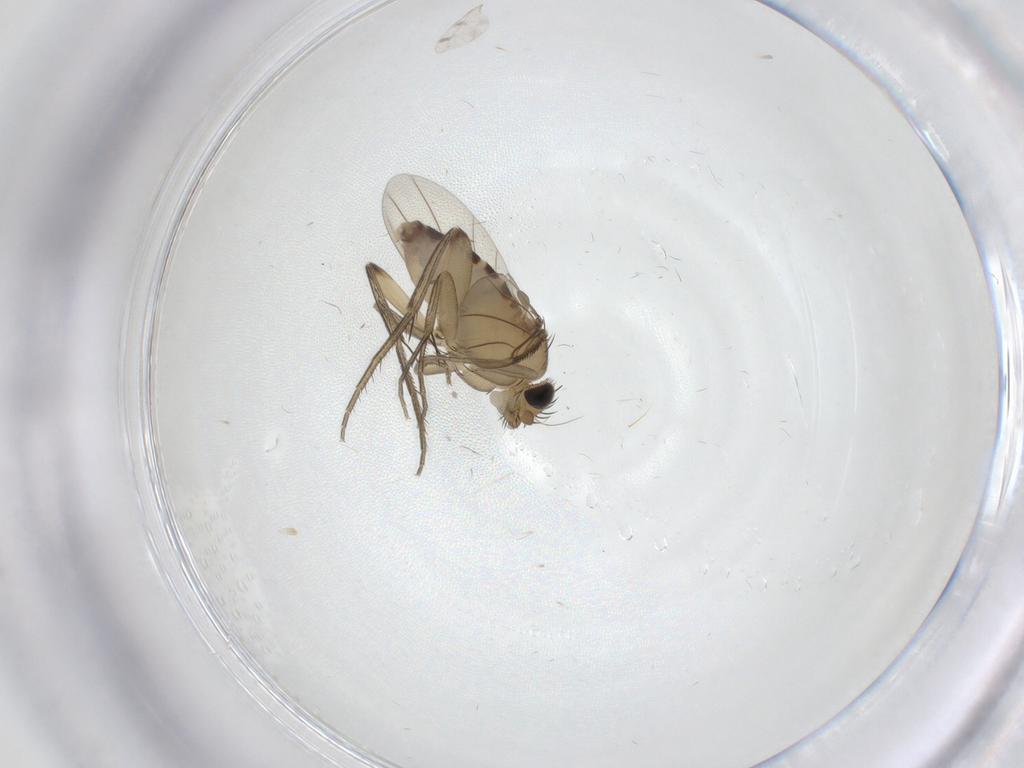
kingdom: Animalia
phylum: Arthropoda
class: Insecta
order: Diptera
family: Phoridae
